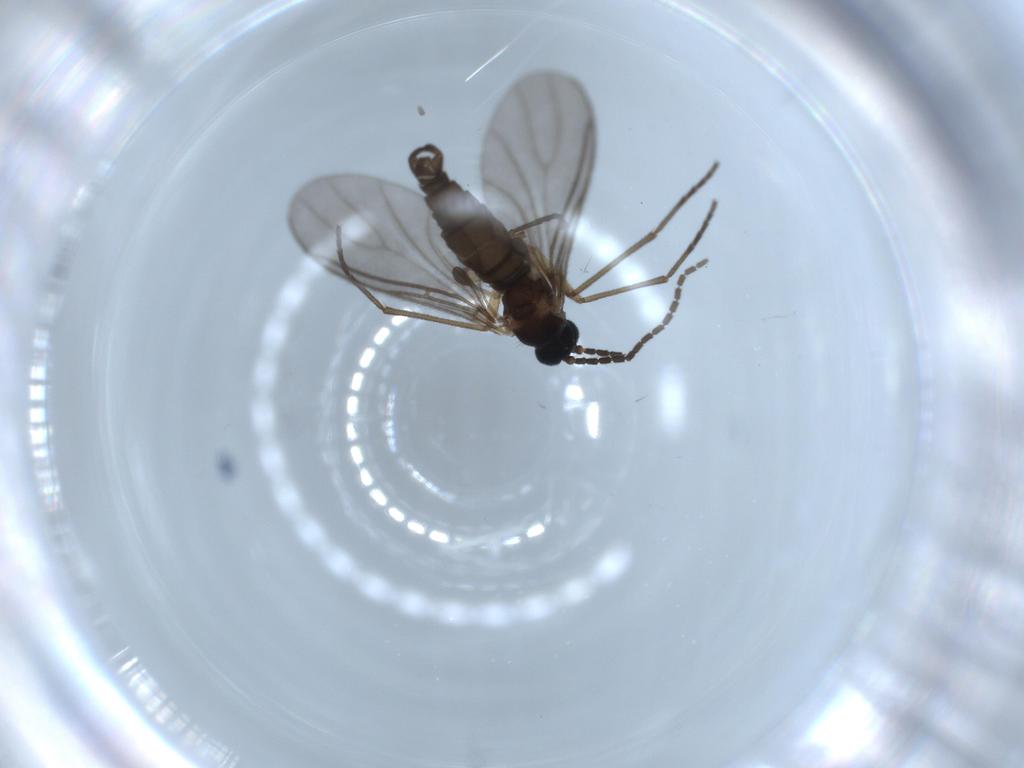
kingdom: Animalia
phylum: Arthropoda
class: Insecta
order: Diptera
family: Sciaridae
